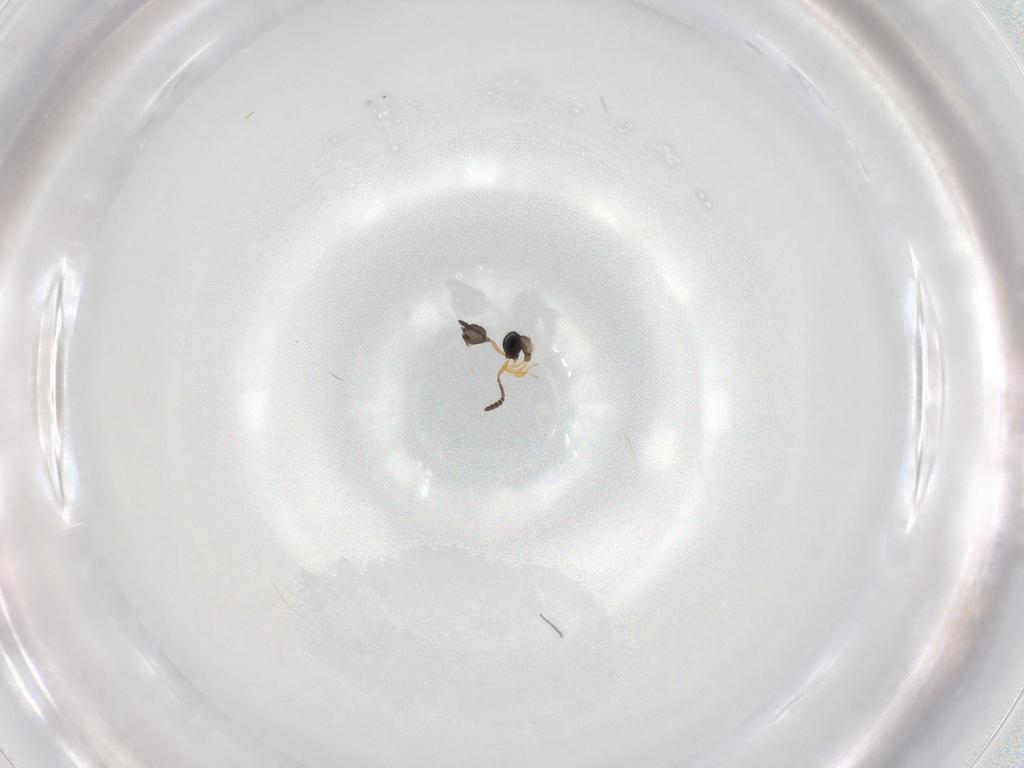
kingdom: Animalia
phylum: Arthropoda
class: Insecta
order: Hymenoptera
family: Scelionidae
